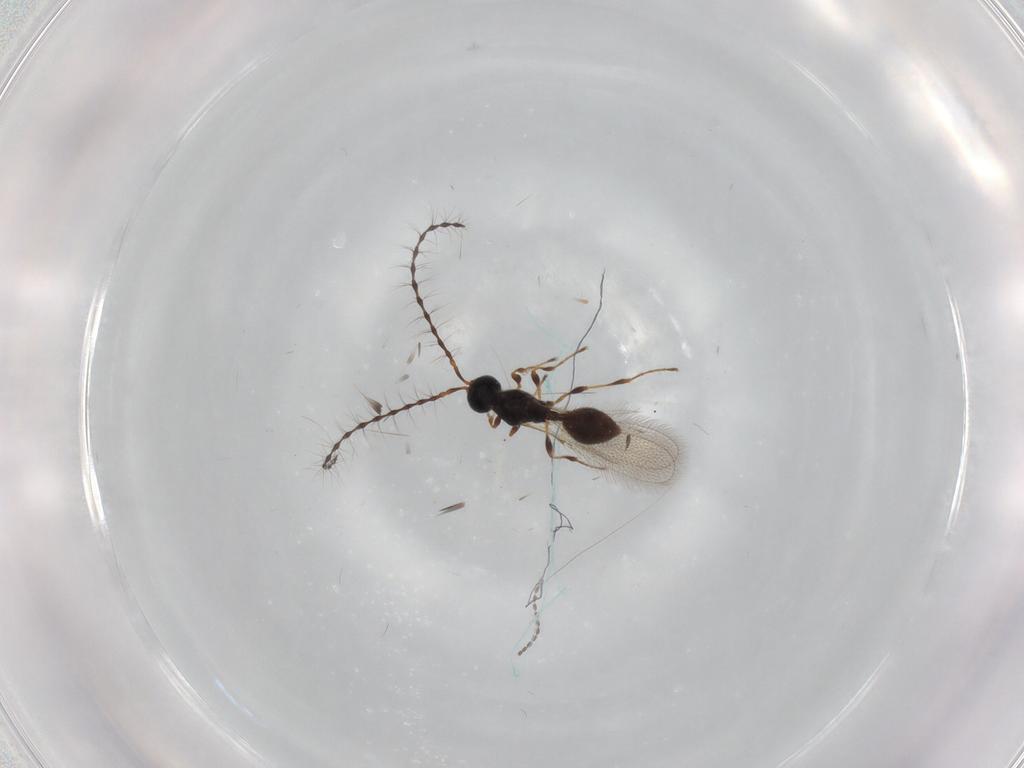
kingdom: Animalia
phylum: Arthropoda
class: Insecta
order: Hymenoptera
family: Diapriidae
